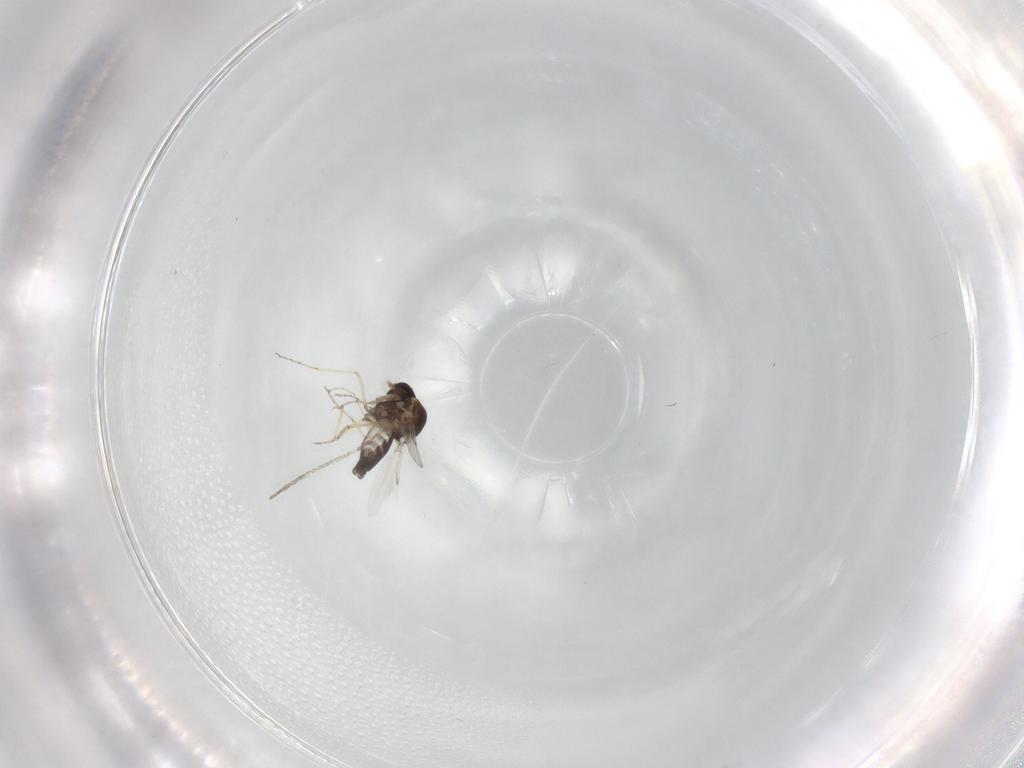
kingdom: Animalia
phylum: Arthropoda
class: Insecta
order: Diptera
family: Ceratopogonidae
